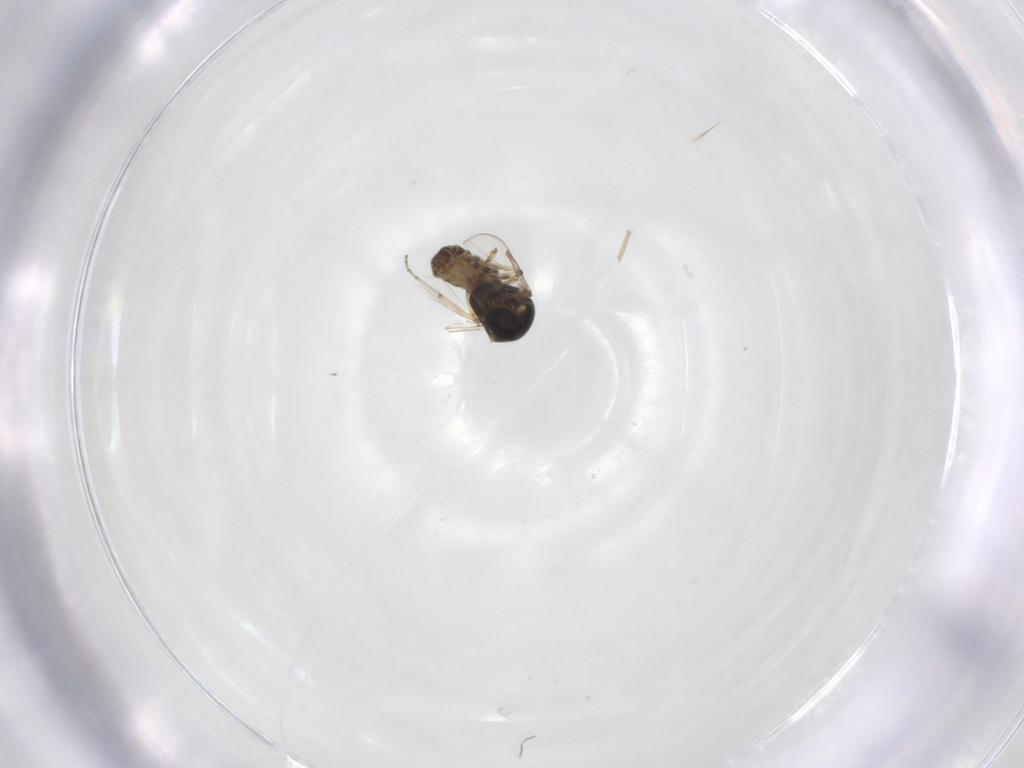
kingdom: Animalia
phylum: Arthropoda
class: Insecta
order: Diptera
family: Ceratopogonidae
